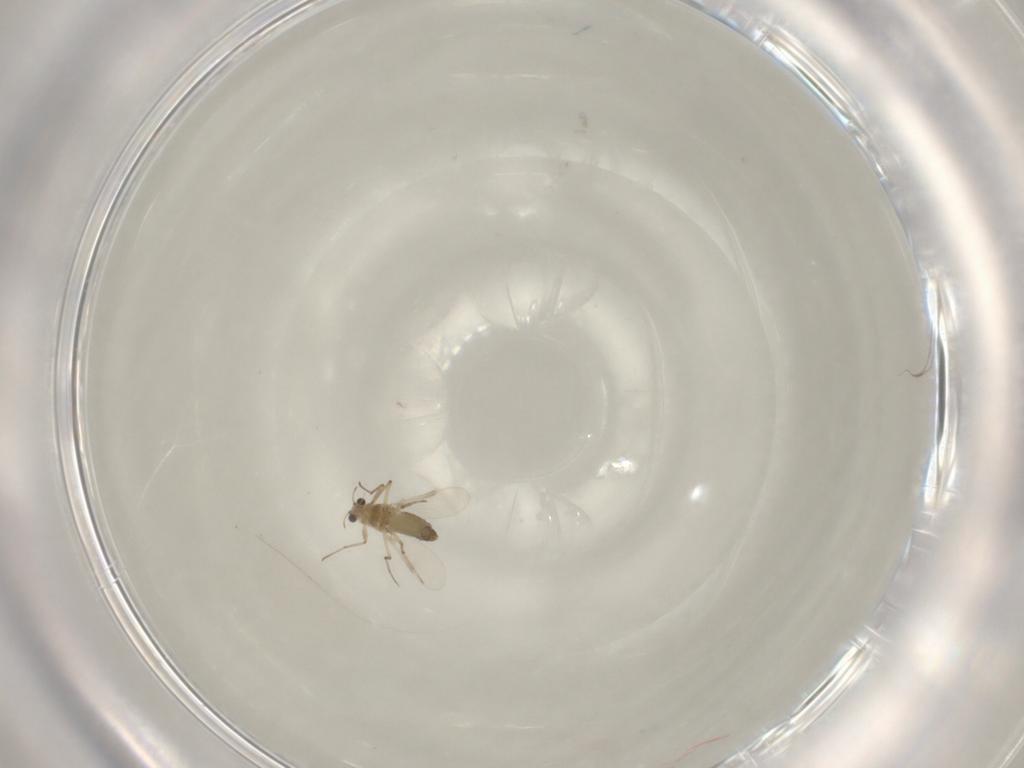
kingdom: Animalia
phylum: Arthropoda
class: Insecta
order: Diptera
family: Chironomidae
